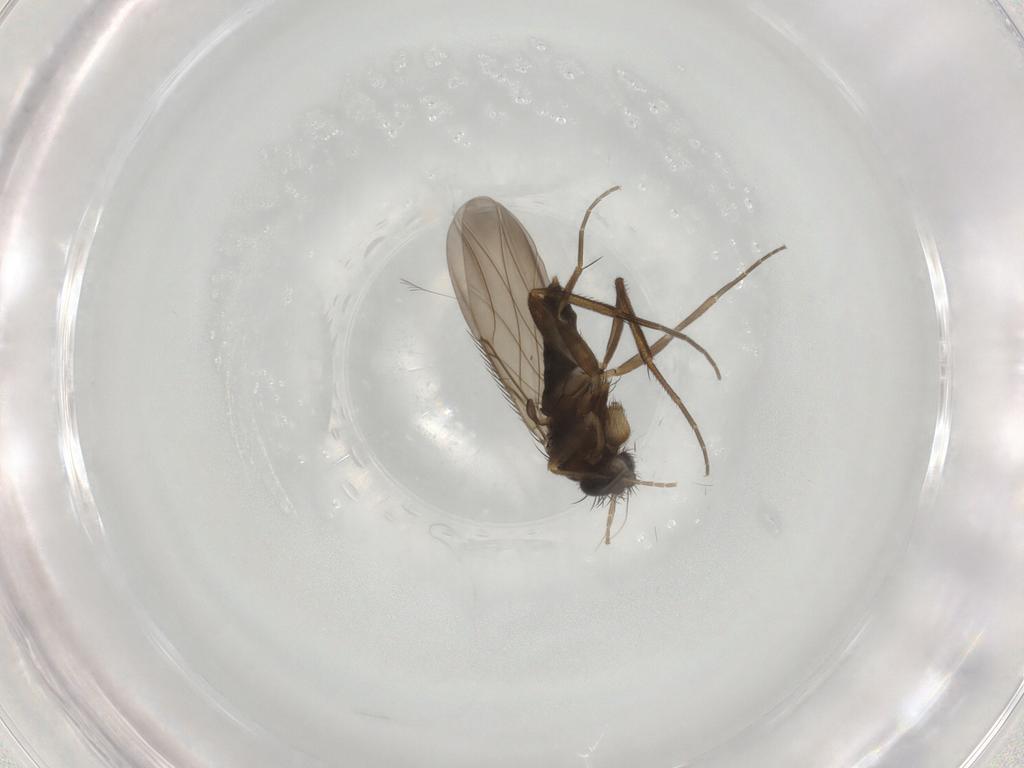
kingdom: Animalia
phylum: Arthropoda
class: Insecta
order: Diptera
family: Phoridae
